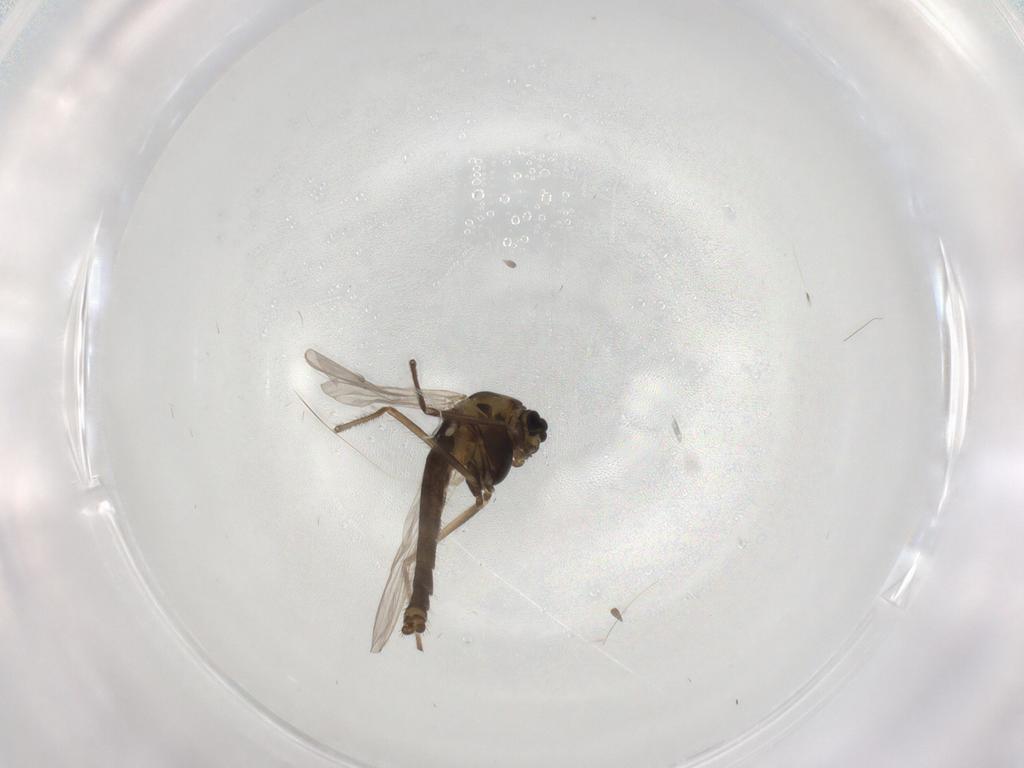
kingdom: Animalia
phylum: Arthropoda
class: Insecta
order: Diptera
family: Chironomidae
